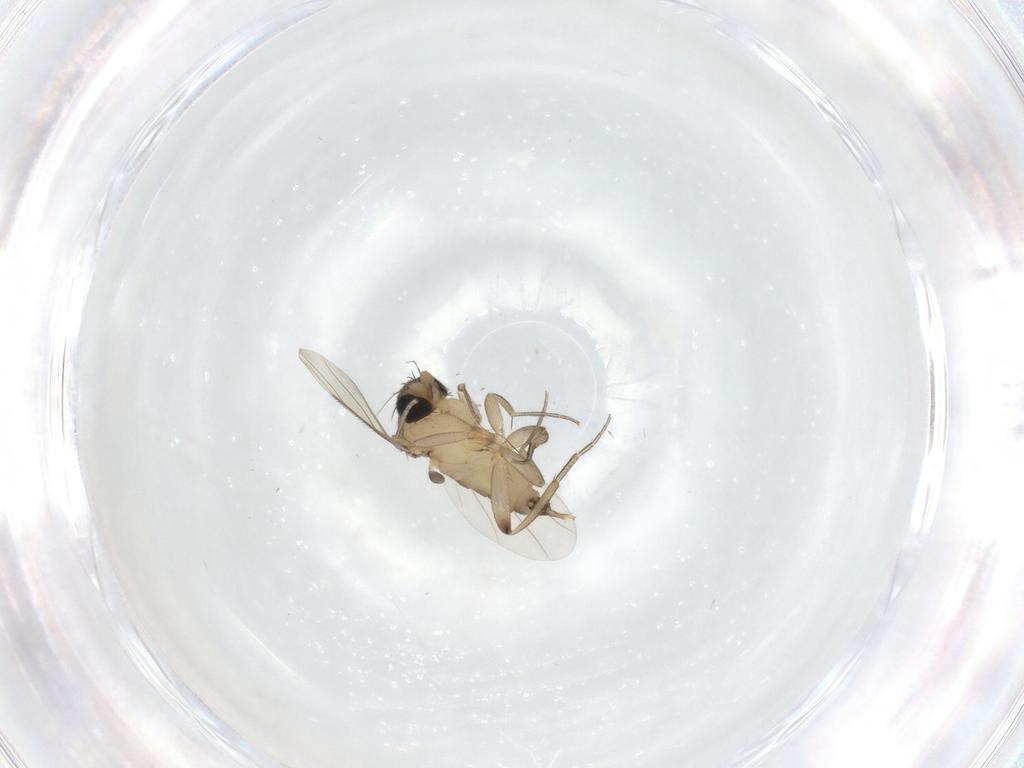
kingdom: Animalia
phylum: Arthropoda
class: Insecta
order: Diptera
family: Phoridae
